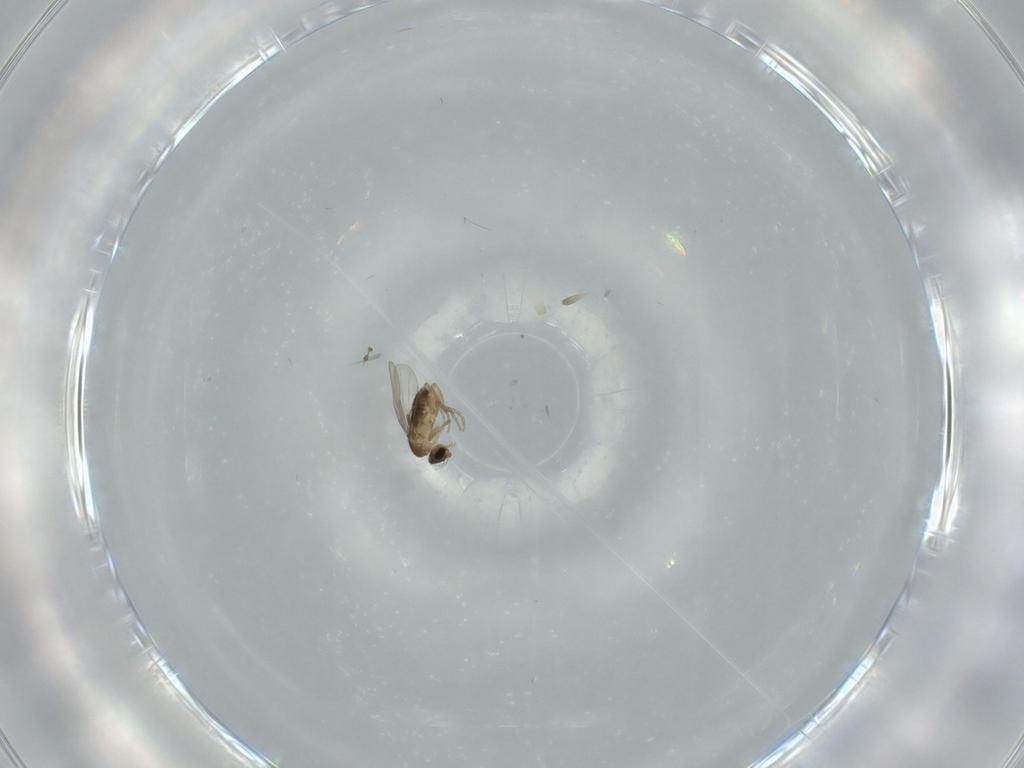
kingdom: Animalia
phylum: Arthropoda
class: Insecta
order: Diptera
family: Phoridae
